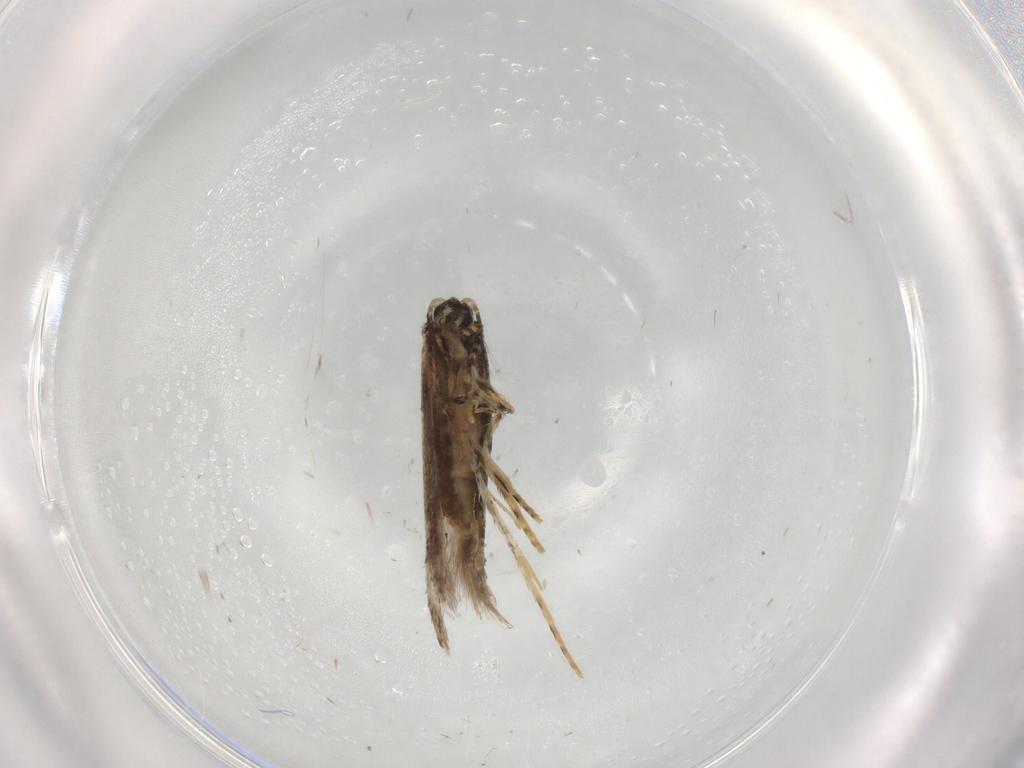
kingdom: Animalia
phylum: Arthropoda
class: Insecta
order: Lepidoptera
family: Tineidae
